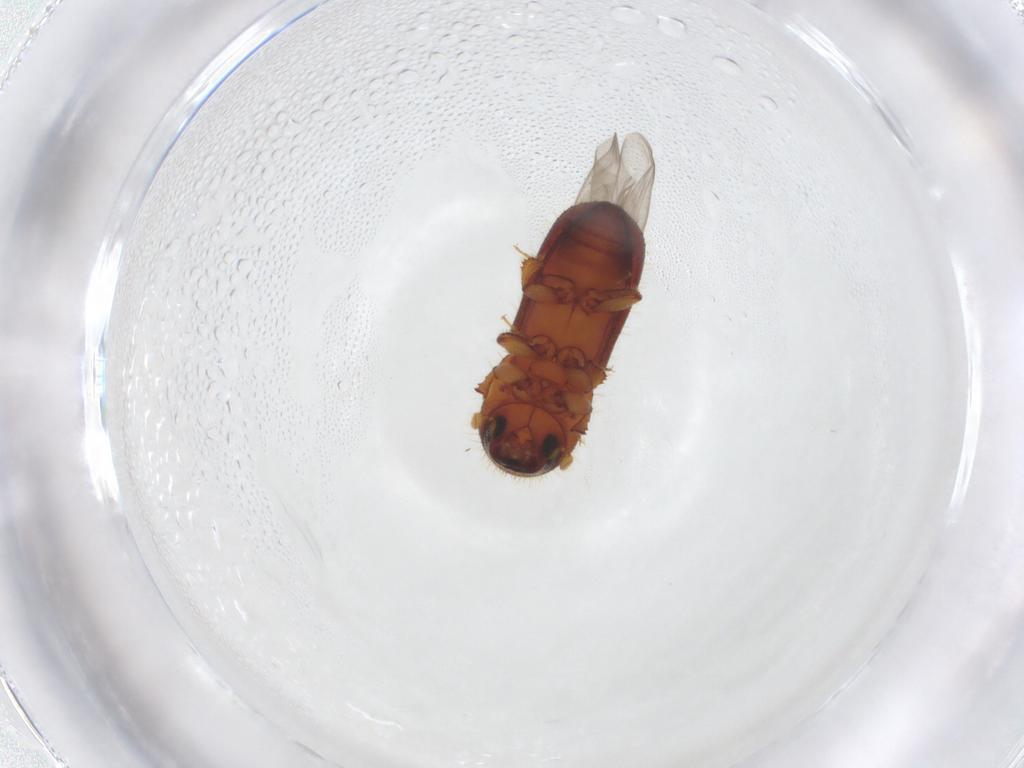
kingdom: Animalia
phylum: Arthropoda
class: Insecta
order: Coleoptera
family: Curculionidae
